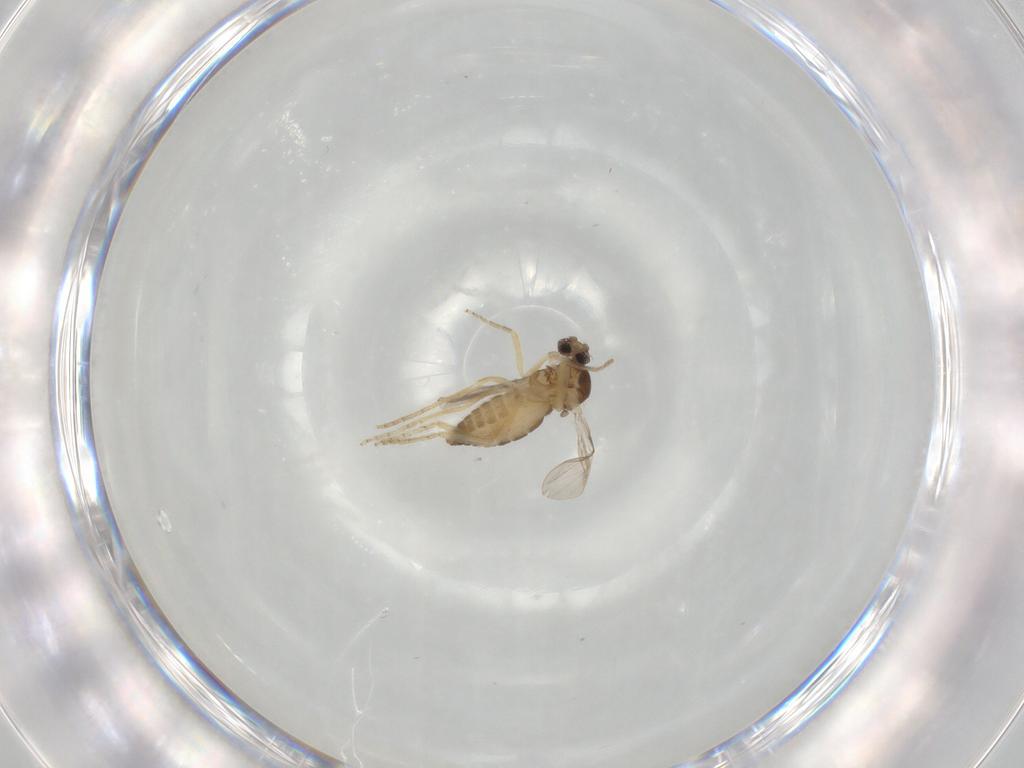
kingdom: Animalia
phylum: Arthropoda
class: Insecta
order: Diptera
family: Ceratopogonidae
